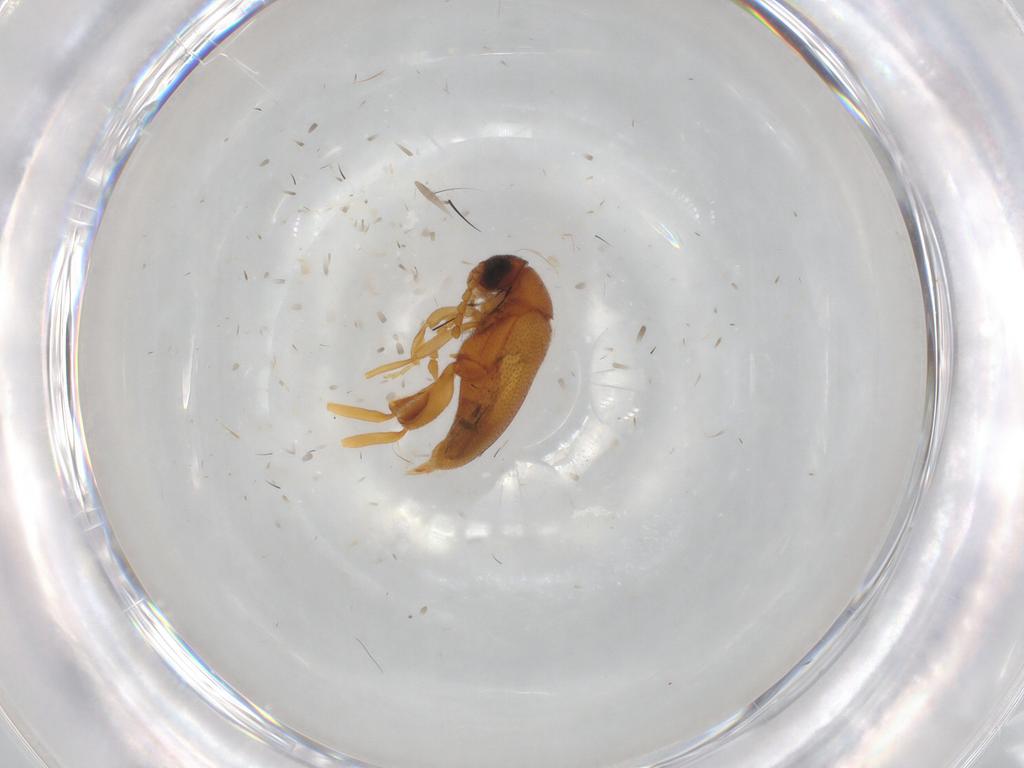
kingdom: Animalia
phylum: Arthropoda
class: Insecta
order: Coleoptera
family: Aderidae
